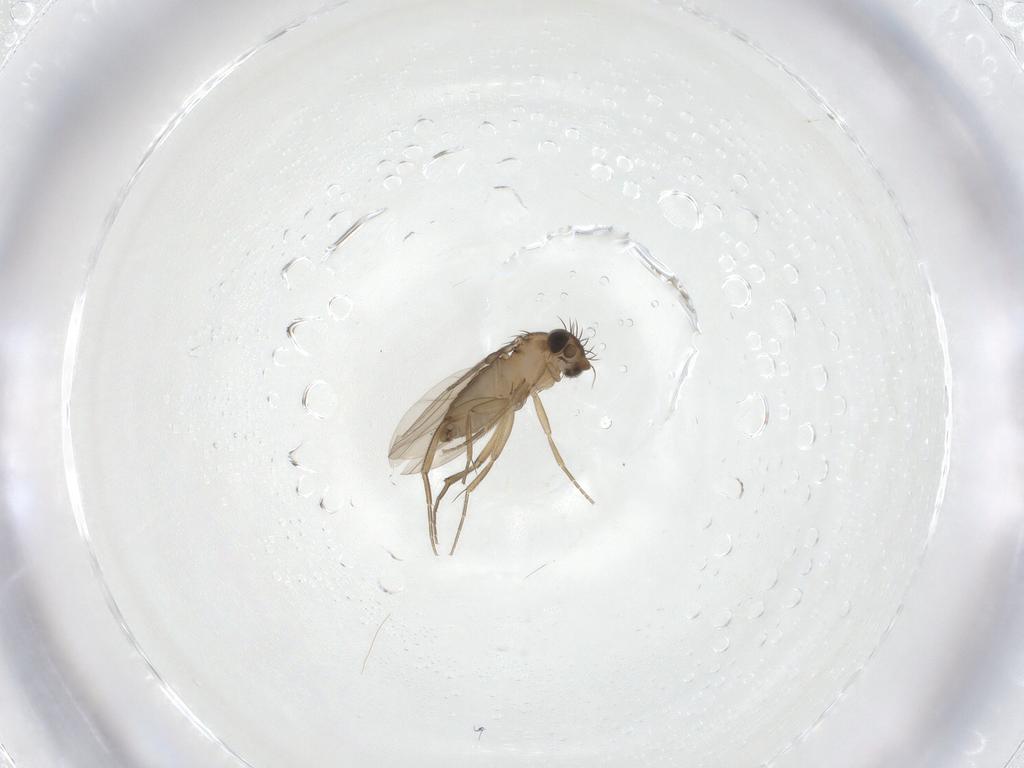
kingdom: Animalia
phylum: Arthropoda
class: Insecta
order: Diptera
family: Phoridae
